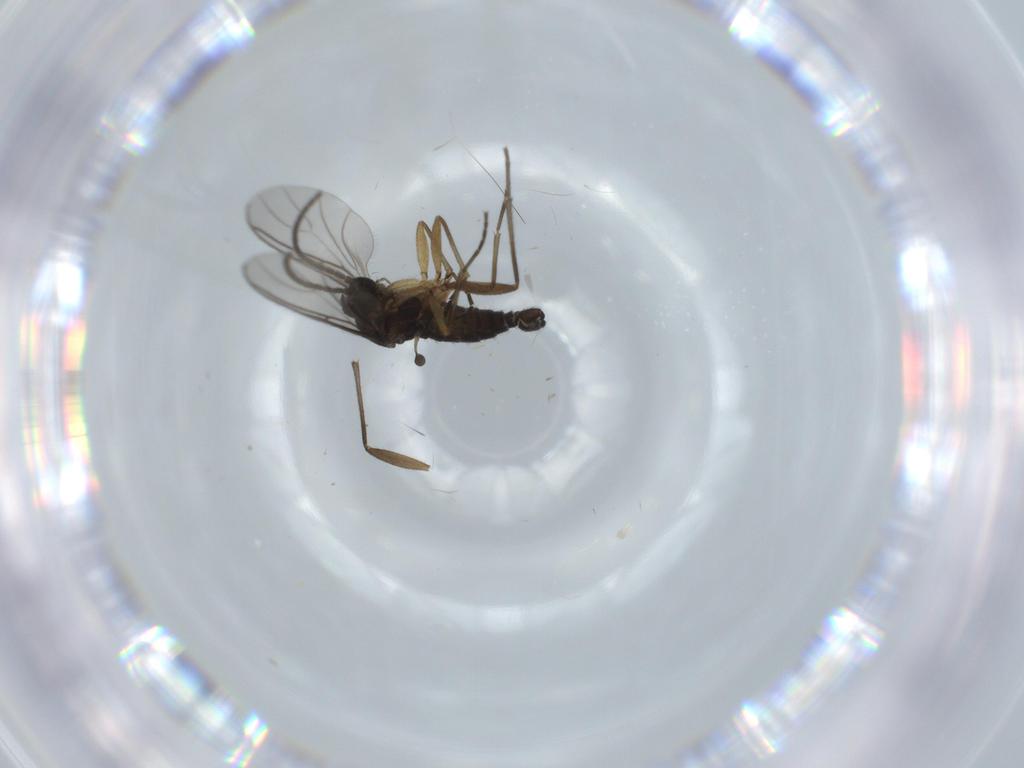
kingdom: Animalia
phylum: Arthropoda
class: Insecta
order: Diptera
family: Sciaridae
